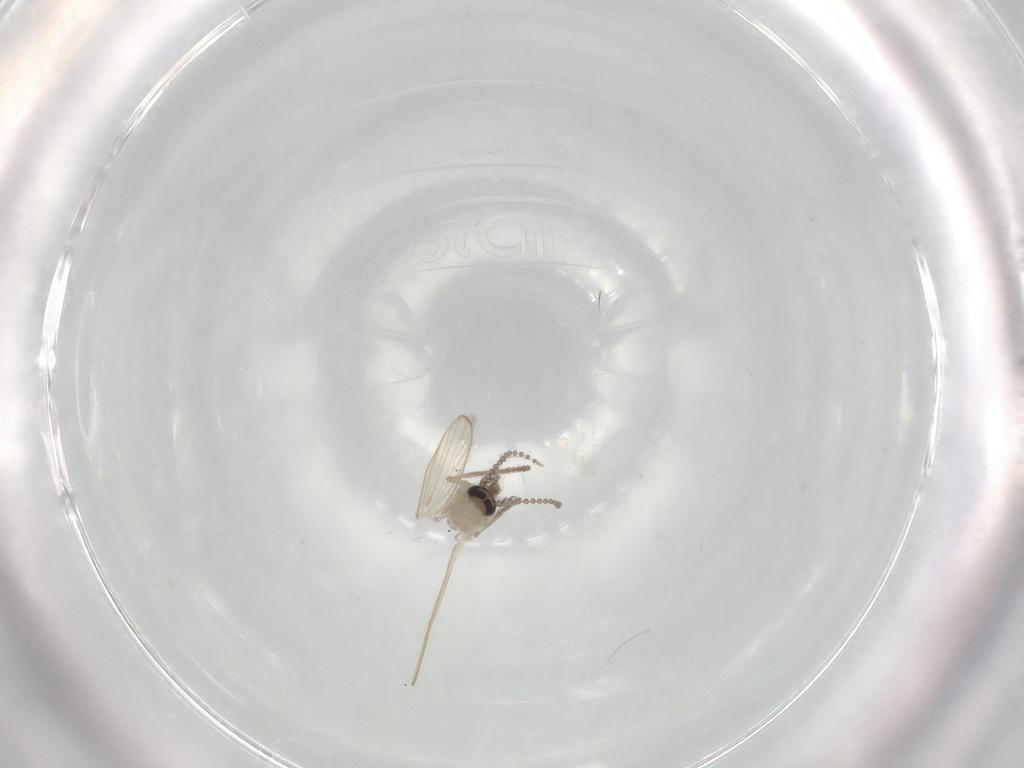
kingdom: Animalia
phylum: Arthropoda
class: Insecta
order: Diptera
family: Psychodidae
